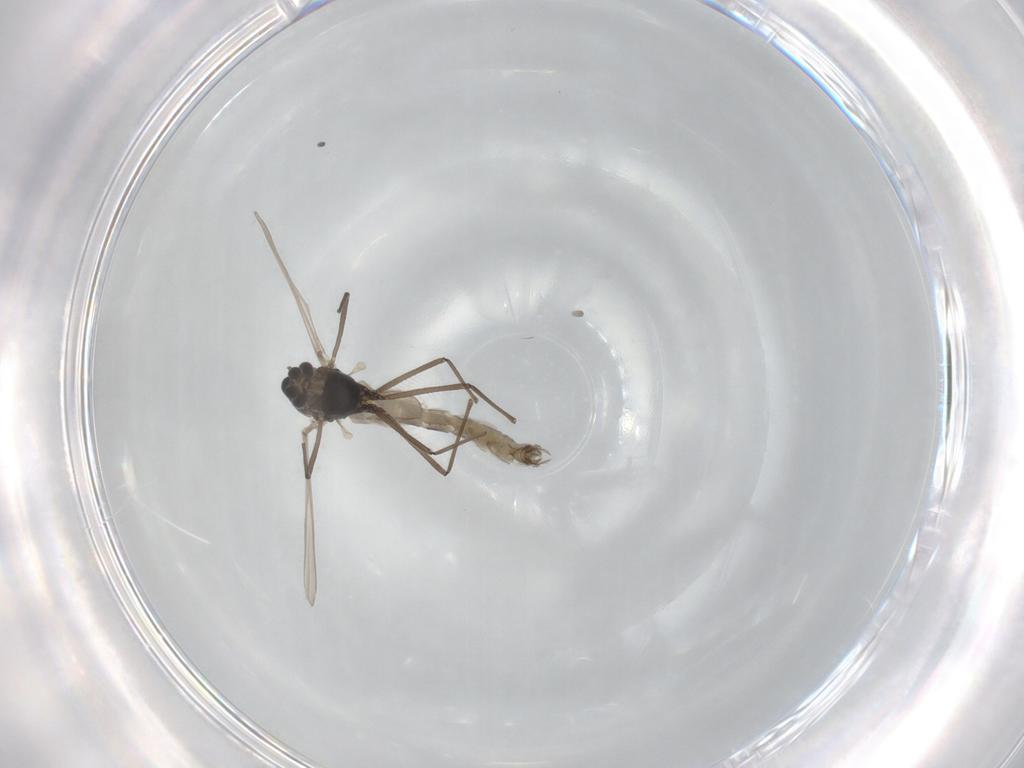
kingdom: Animalia
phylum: Arthropoda
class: Insecta
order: Diptera
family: Chironomidae
